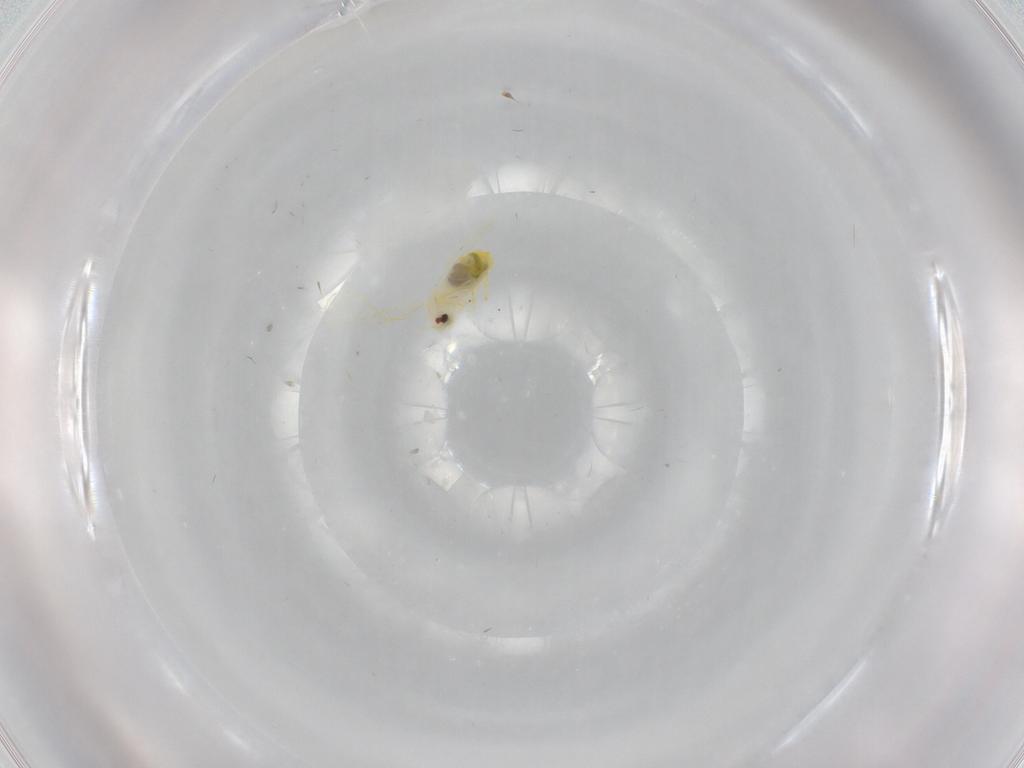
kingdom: Animalia
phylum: Arthropoda
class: Insecta
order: Hemiptera
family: Aleyrodidae
